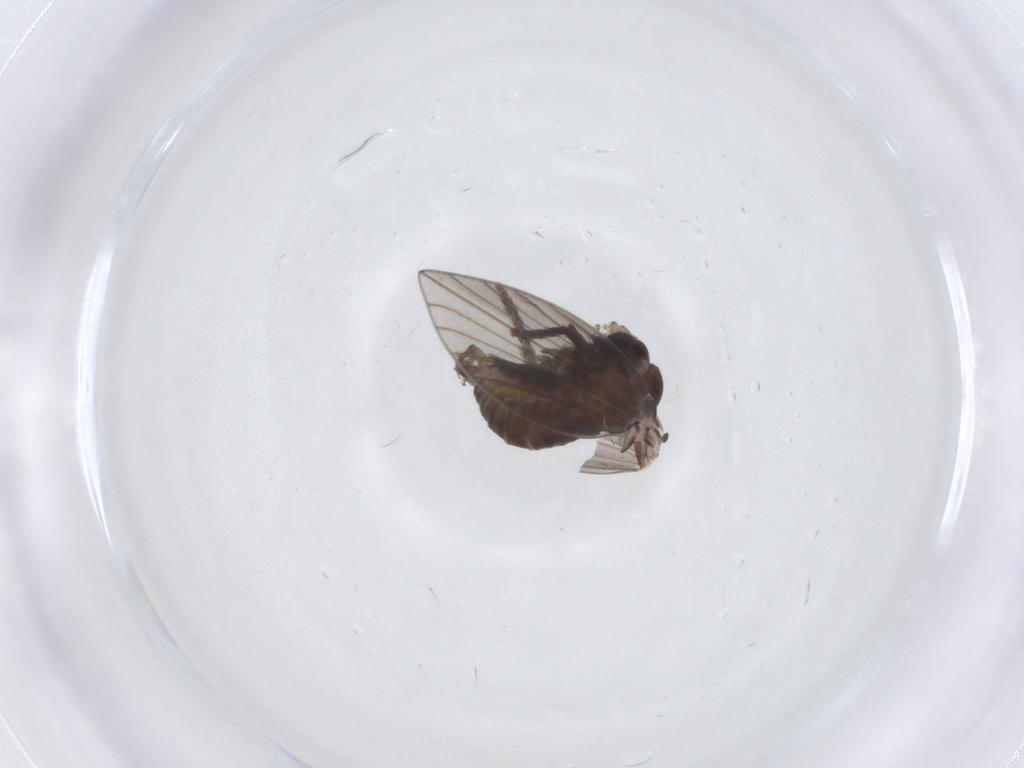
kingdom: Animalia
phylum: Arthropoda
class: Insecta
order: Diptera
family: Psychodidae
